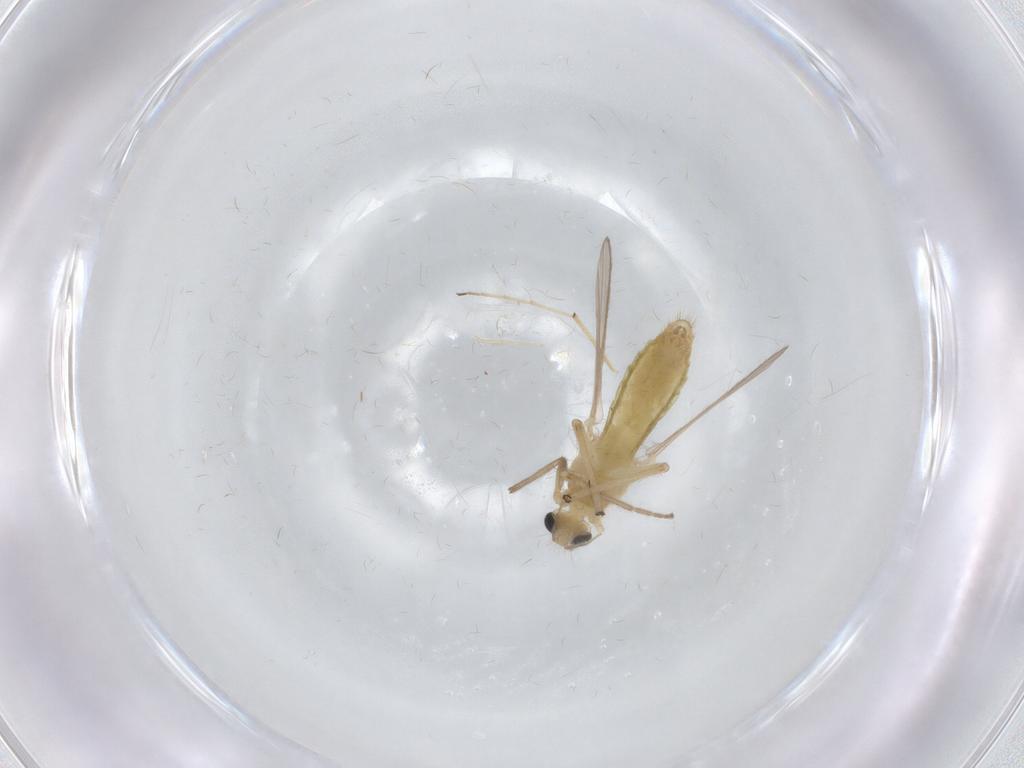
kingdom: Animalia
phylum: Arthropoda
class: Insecta
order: Diptera
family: Chironomidae
